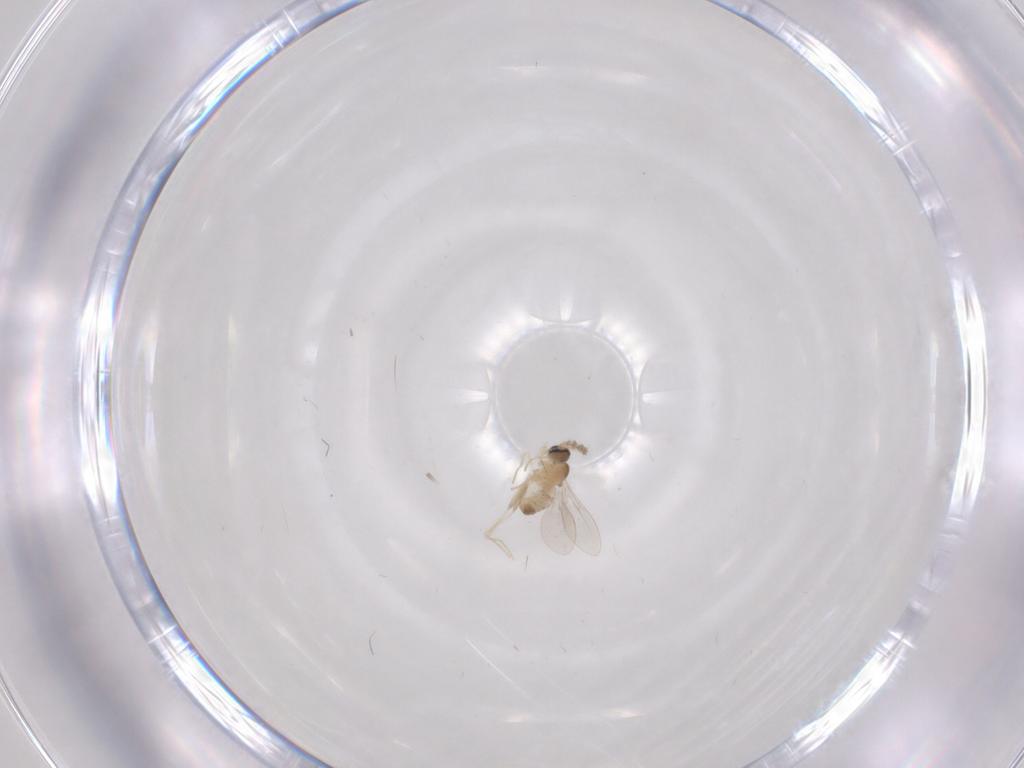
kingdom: Animalia
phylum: Arthropoda
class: Insecta
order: Diptera
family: Cecidomyiidae
